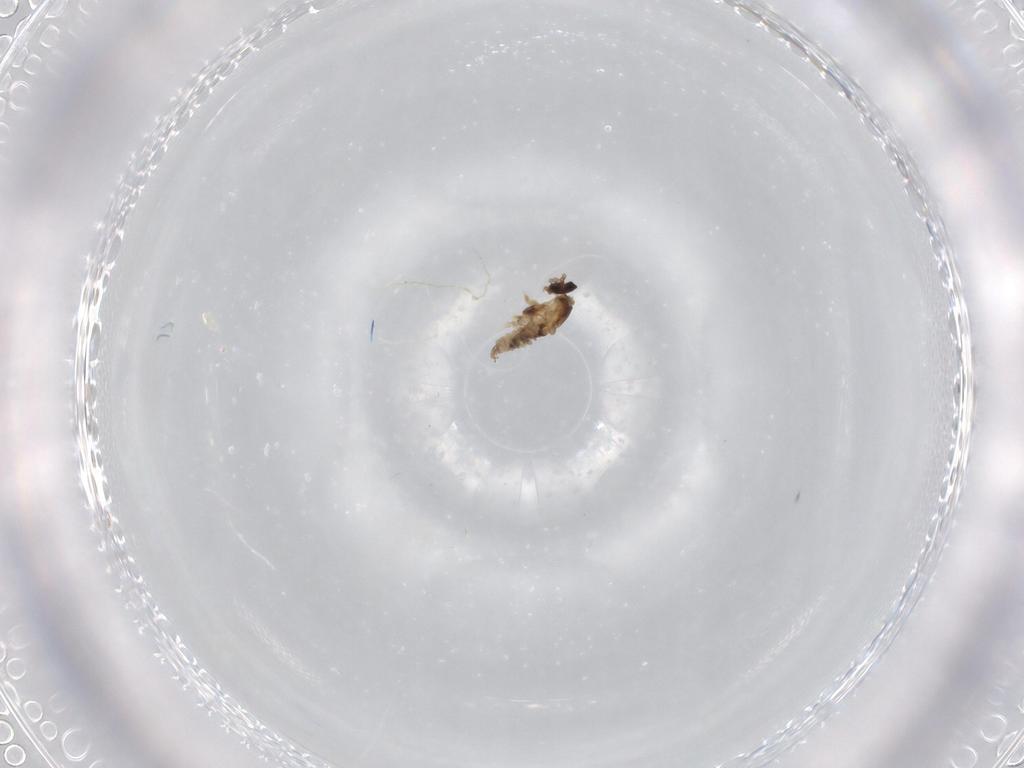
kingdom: Animalia
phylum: Arthropoda
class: Insecta
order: Diptera
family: Cecidomyiidae
